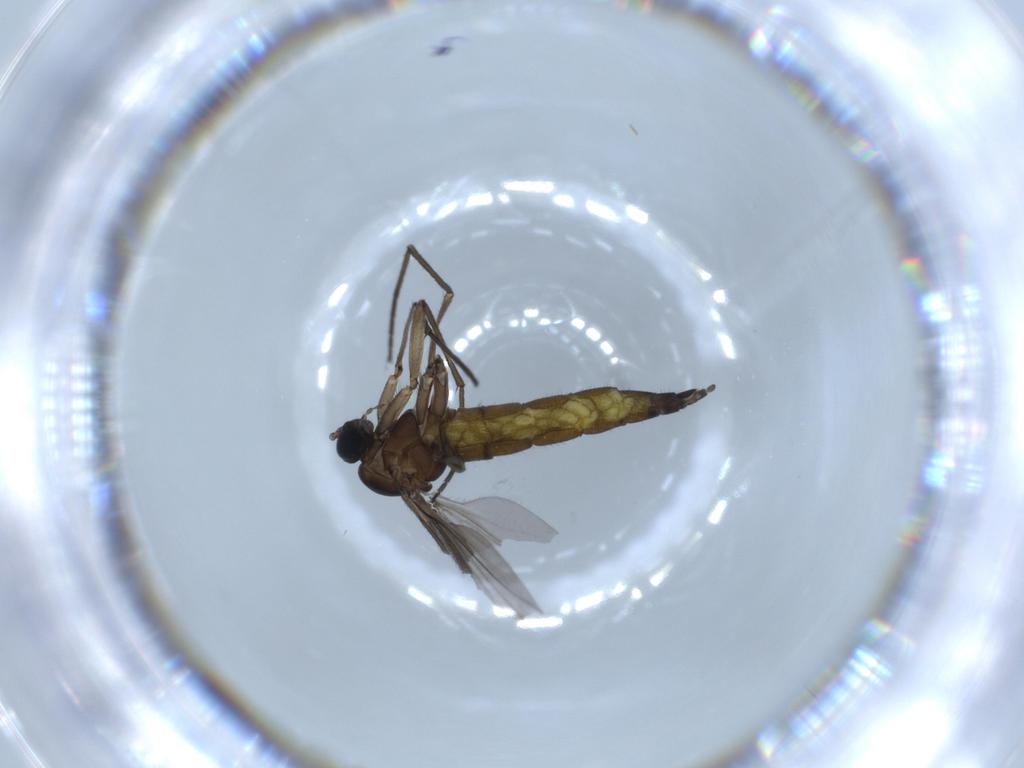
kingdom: Animalia
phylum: Arthropoda
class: Insecta
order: Diptera
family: Sciaridae
